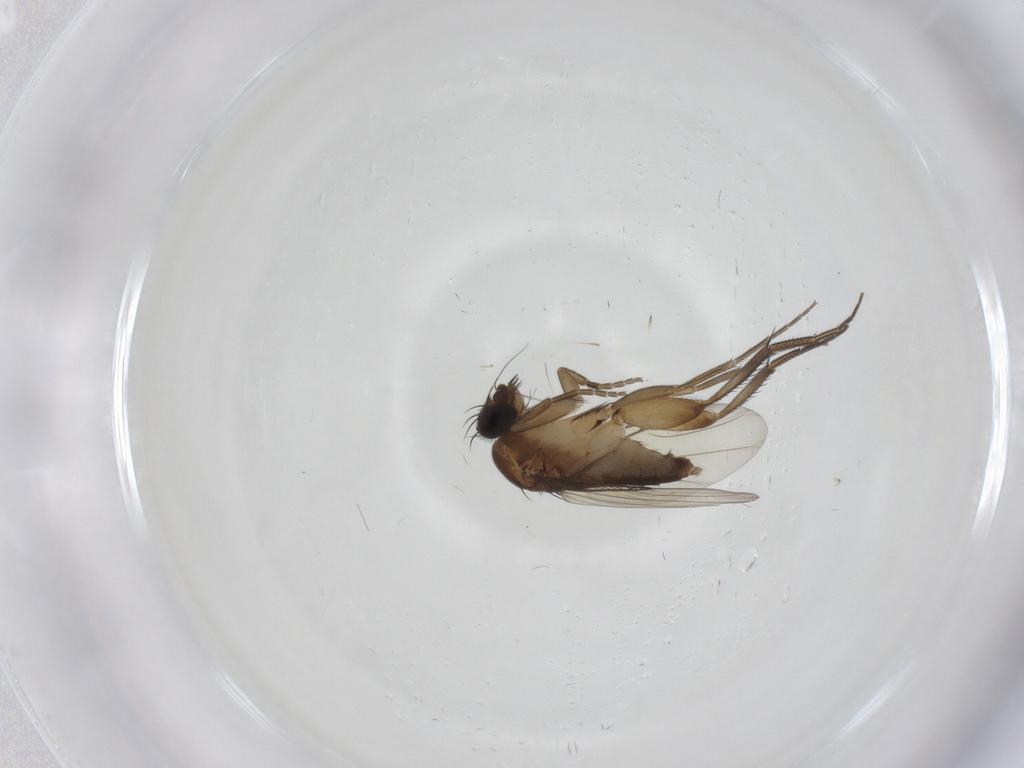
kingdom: Animalia
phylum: Arthropoda
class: Insecta
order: Diptera
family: Phoridae
